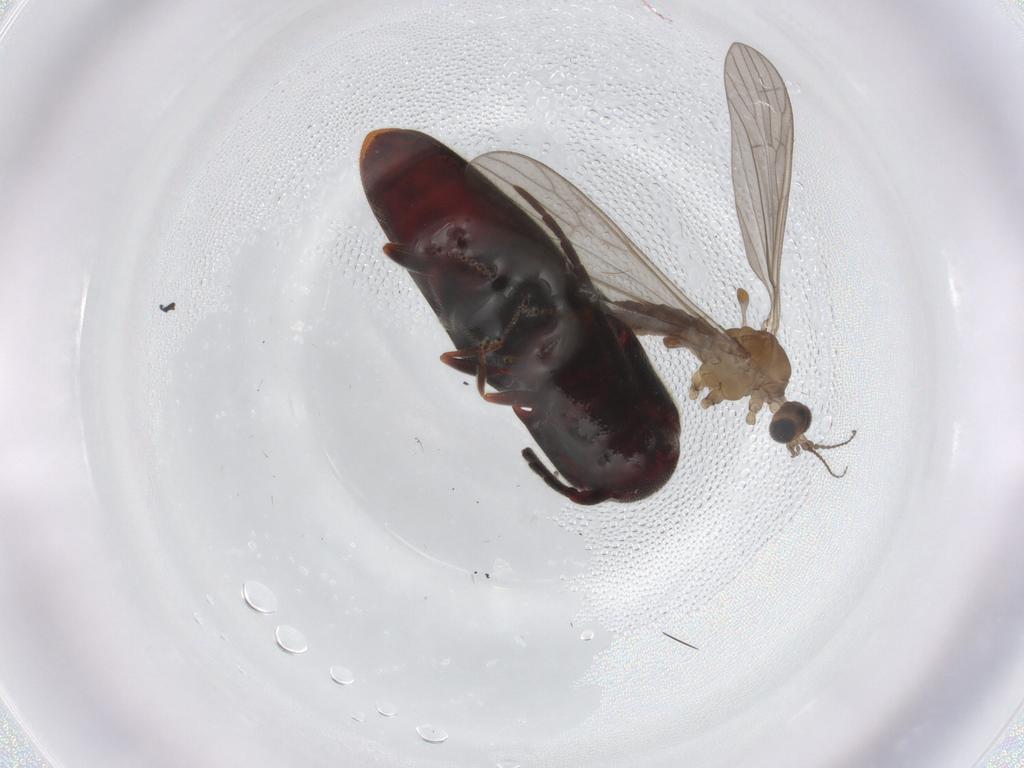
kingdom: Animalia
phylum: Arthropoda
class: Insecta
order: Coleoptera
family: Eucnemidae
